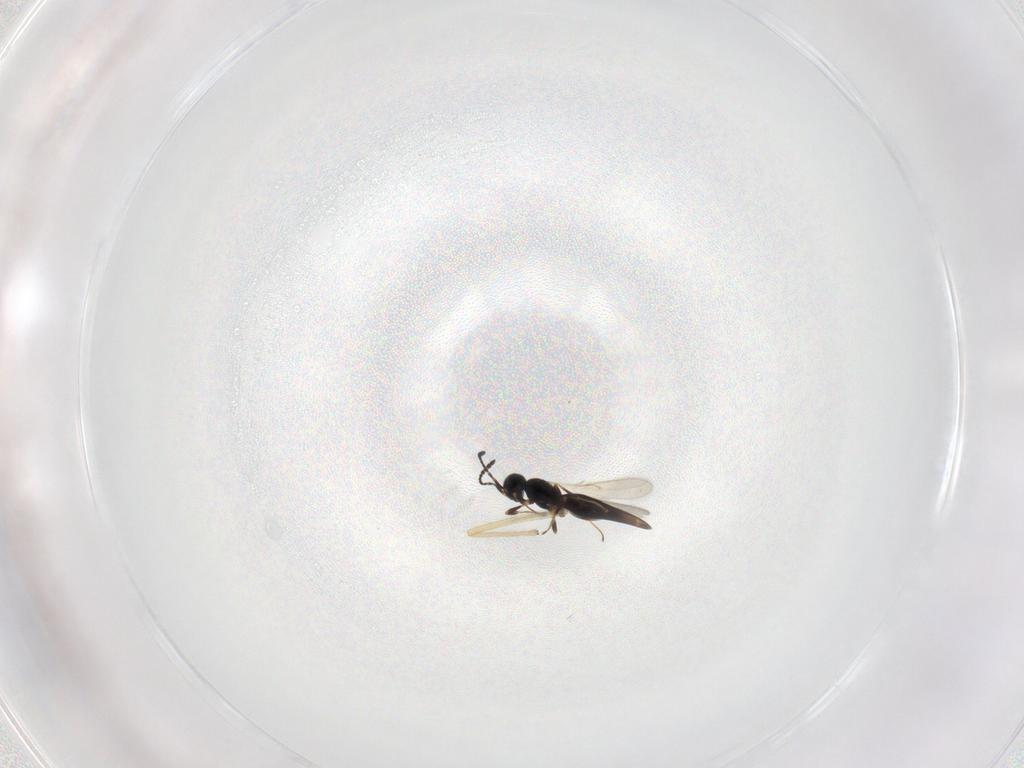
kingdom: Animalia
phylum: Arthropoda
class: Insecta
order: Hymenoptera
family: Scelionidae
